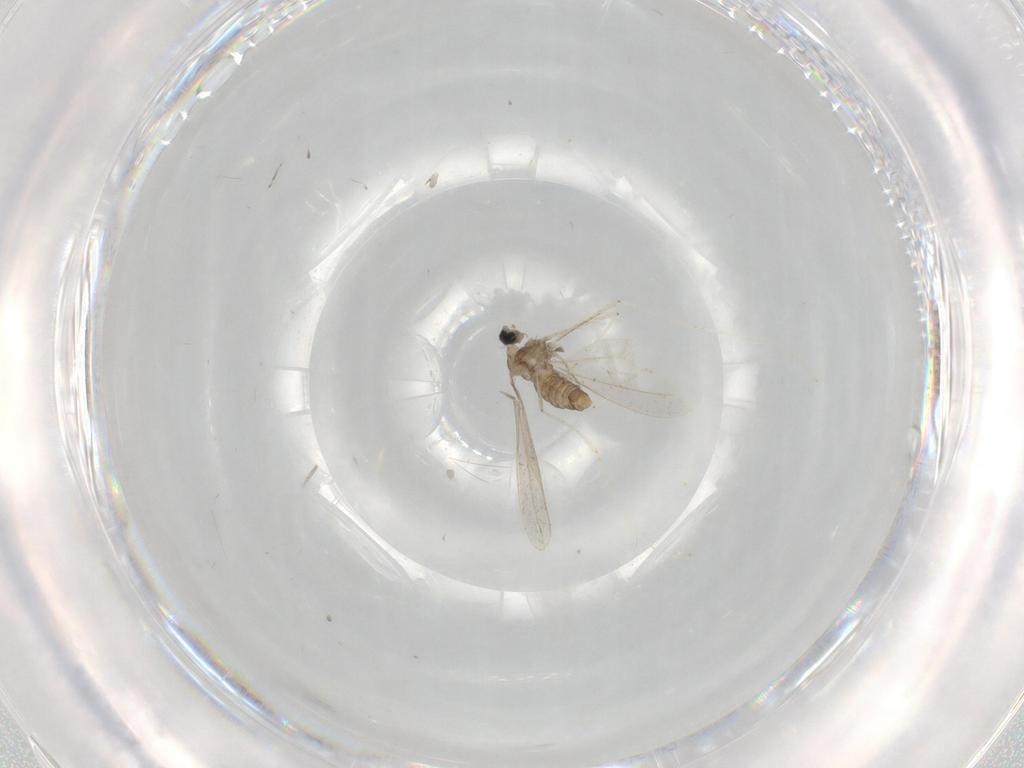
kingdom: Animalia
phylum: Arthropoda
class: Insecta
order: Diptera
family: Cecidomyiidae
